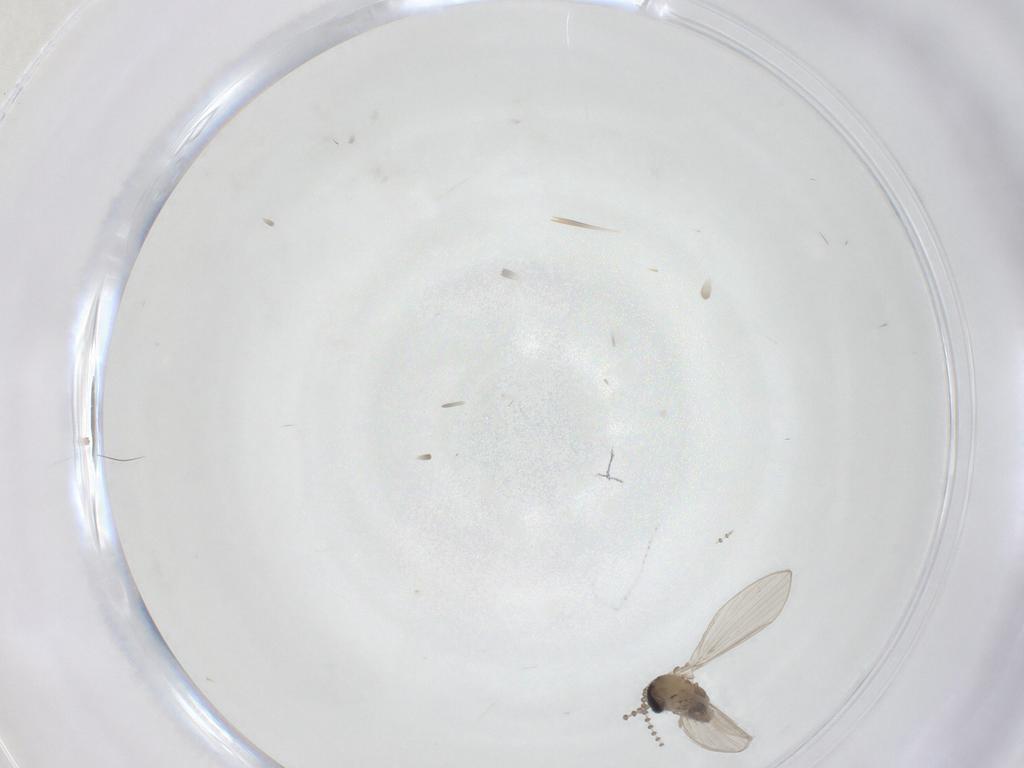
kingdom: Animalia
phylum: Arthropoda
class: Insecta
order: Diptera
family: Psychodidae
